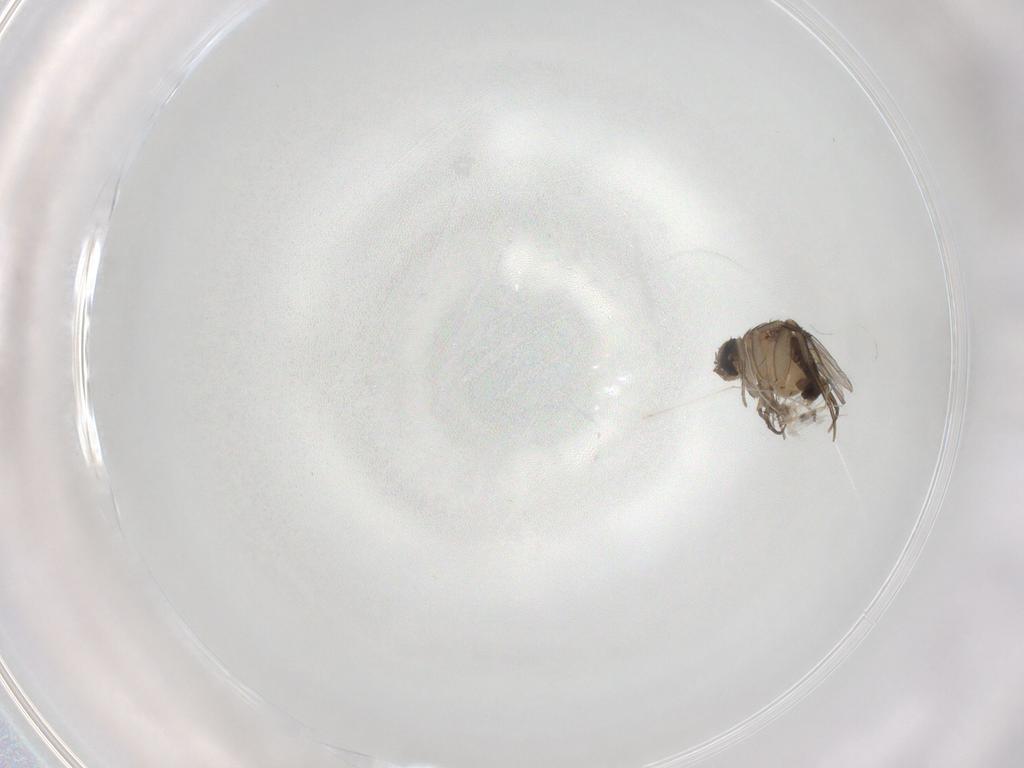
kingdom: Animalia
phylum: Arthropoda
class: Insecta
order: Diptera
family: Phoridae
